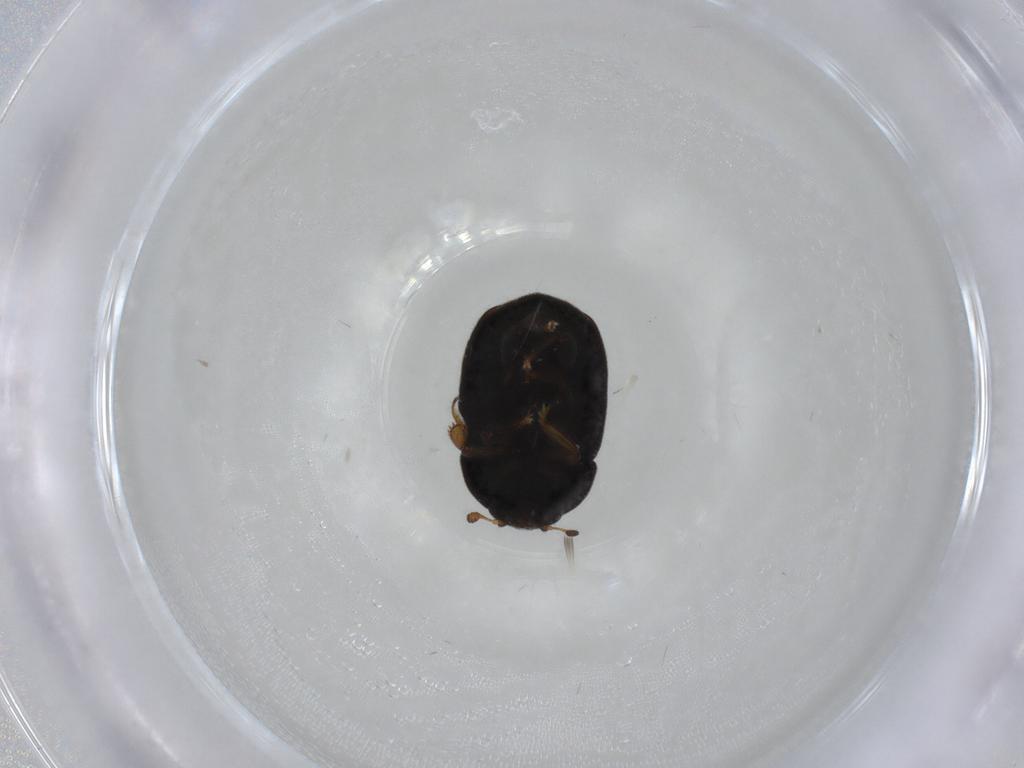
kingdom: Animalia
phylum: Arthropoda
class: Insecta
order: Coleoptera
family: Nitidulidae
